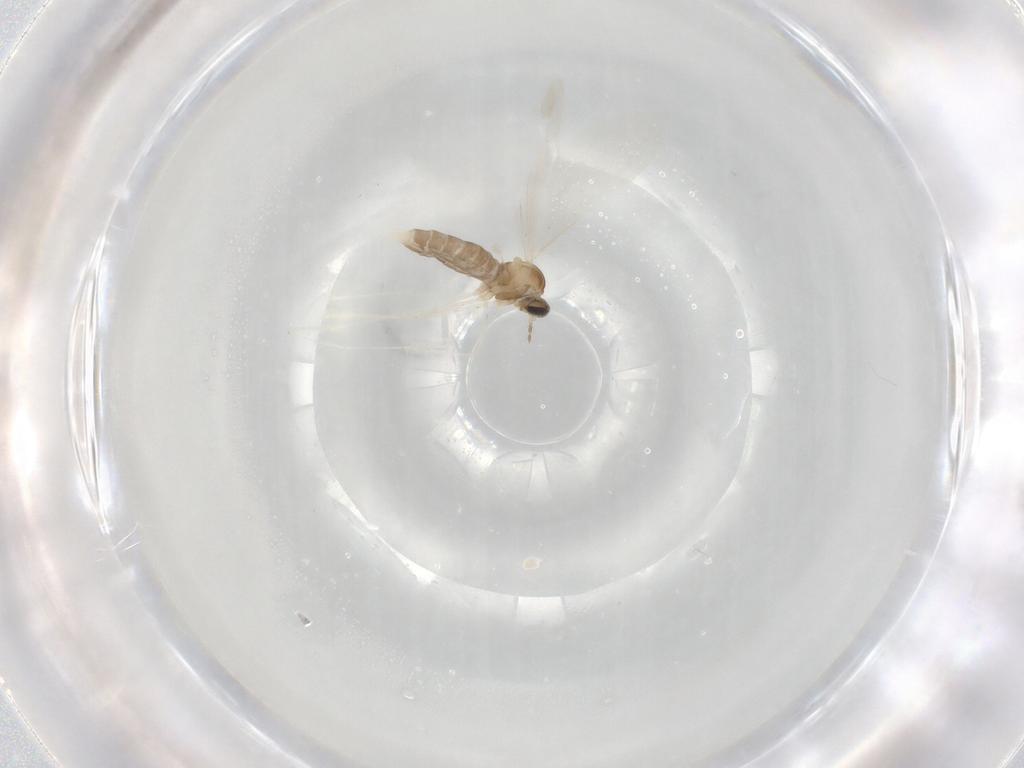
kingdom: Animalia
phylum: Arthropoda
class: Insecta
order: Diptera
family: Cecidomyiidae
